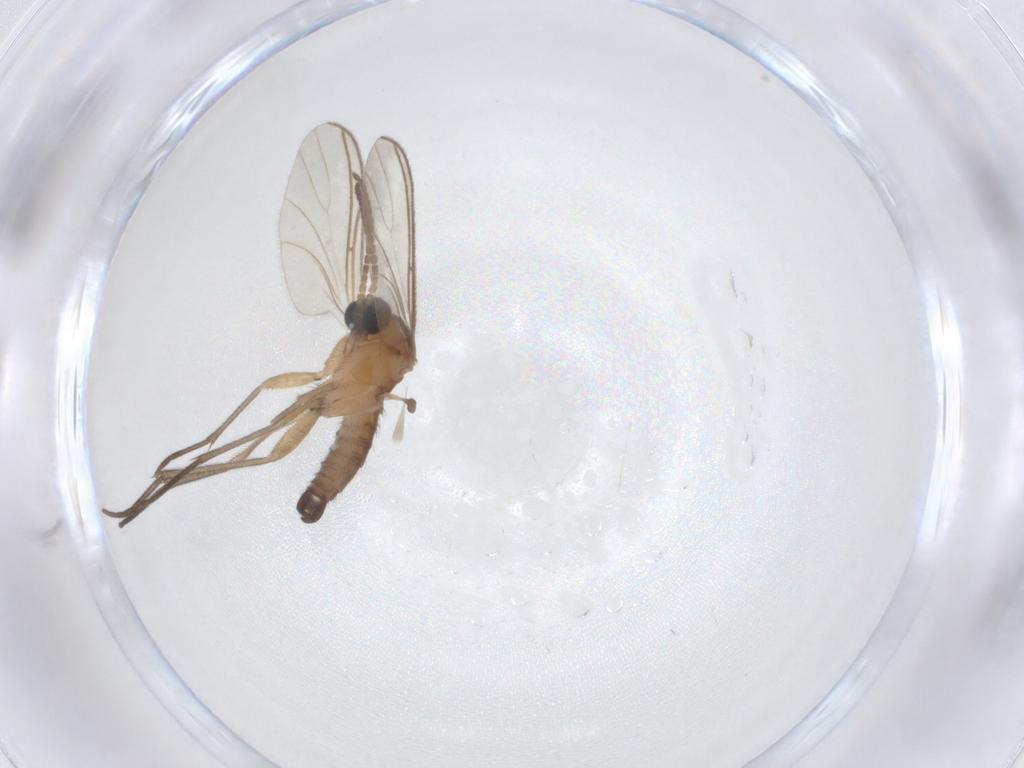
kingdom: Animalia
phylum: Arthropoda
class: Insecta
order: Diptera
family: Sciaridae
